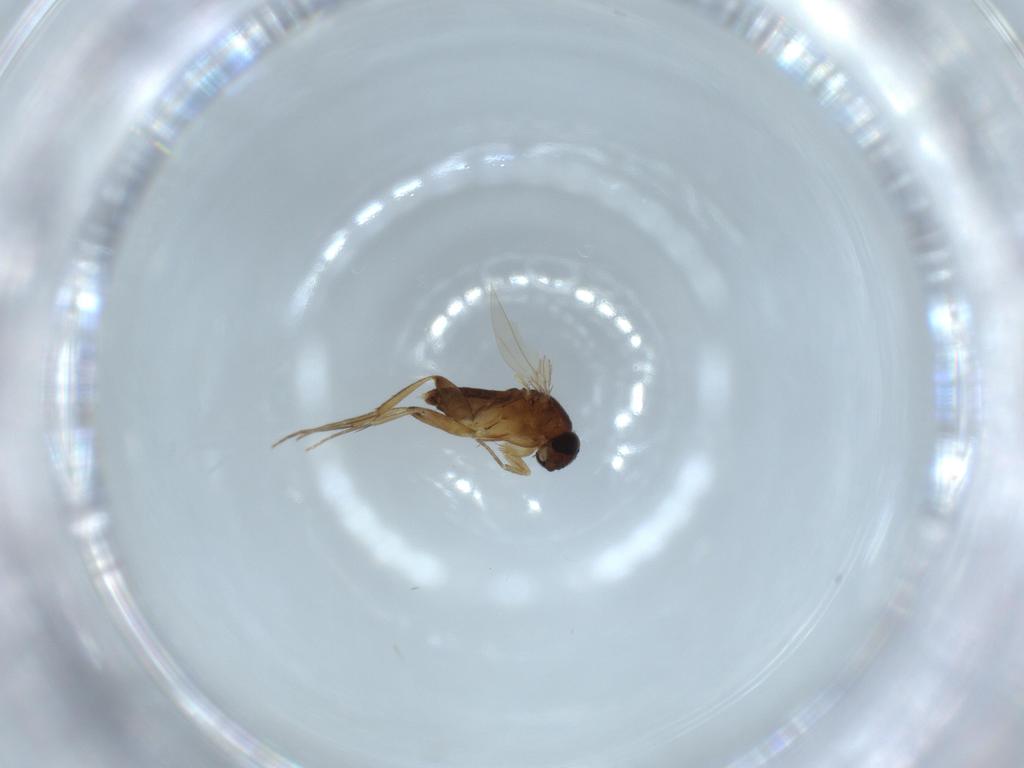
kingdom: Animalia
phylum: Arthropoda
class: Insecta
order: Diptera
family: Phoridae
